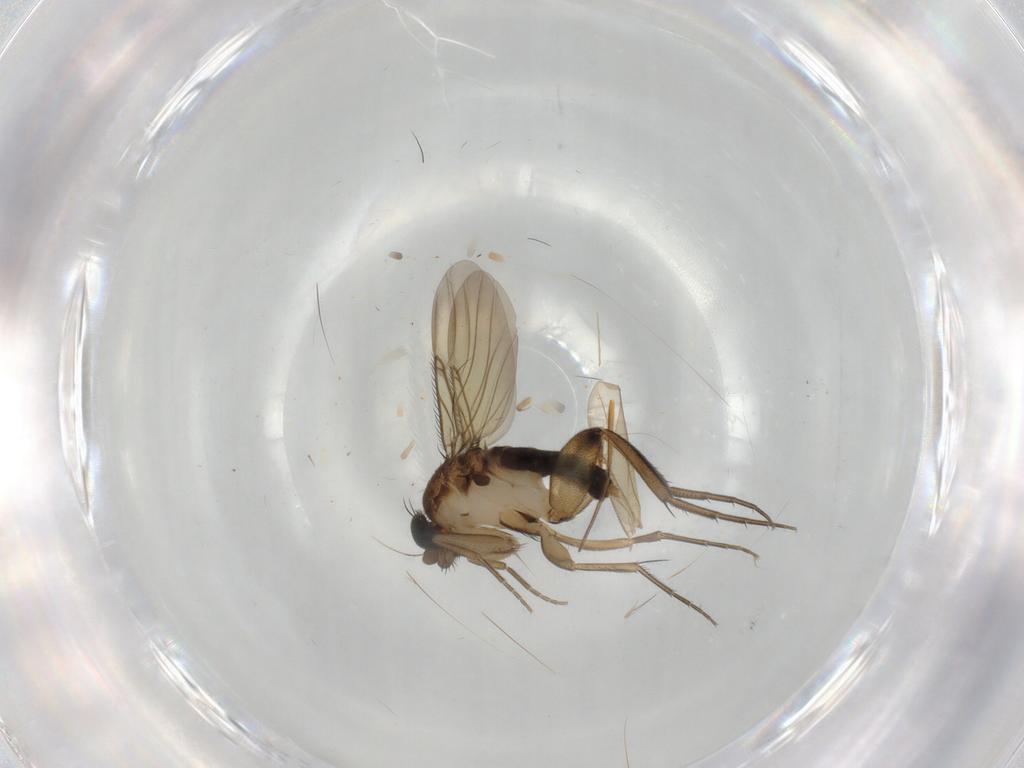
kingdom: Animalia
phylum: Arthropoda
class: Insecta
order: Diptera
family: Phoridae
